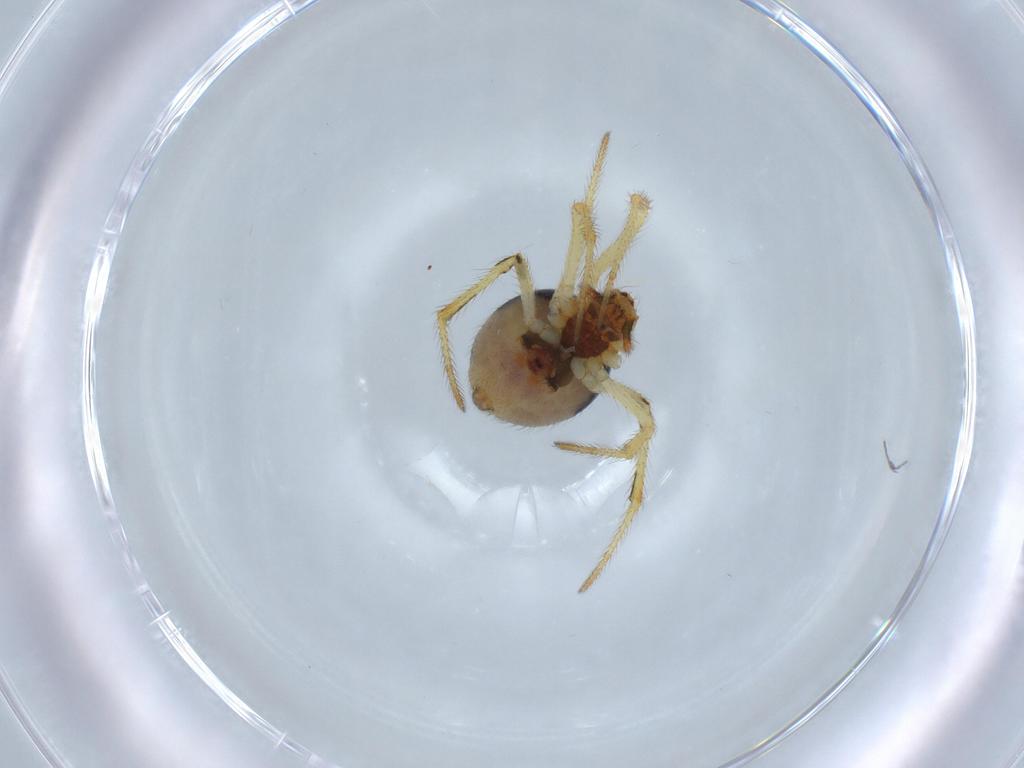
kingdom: Animalia
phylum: Arthropoda
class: Arachnida
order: Araneae
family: Theridiidae
